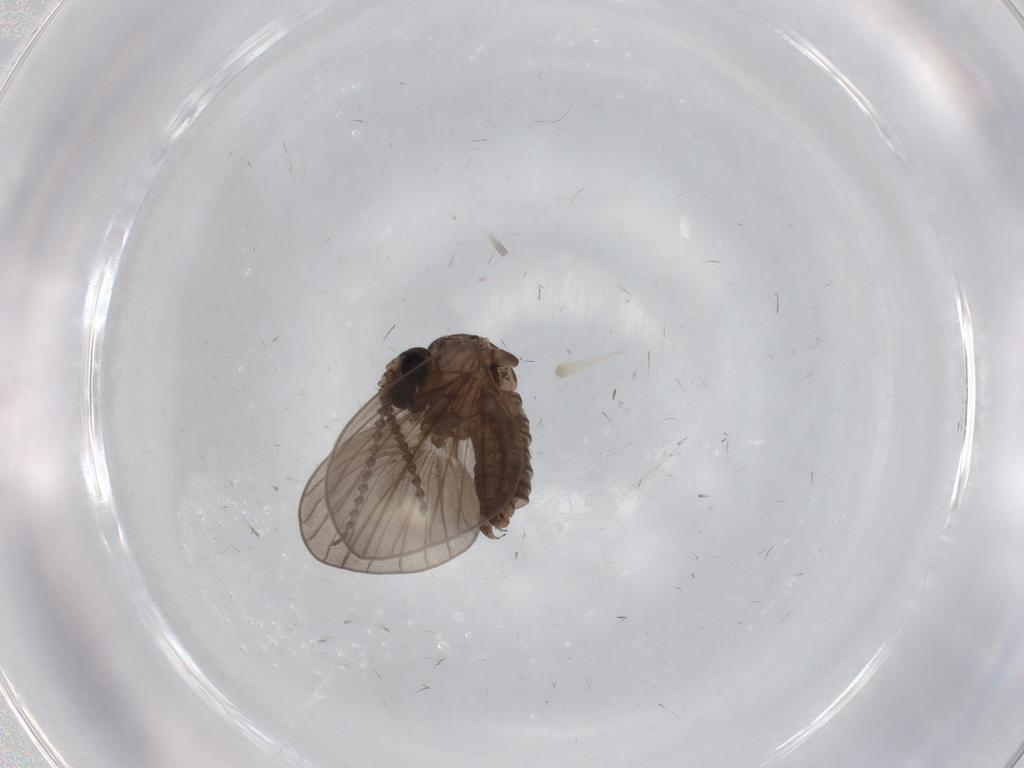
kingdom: Animalia
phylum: Arthropoda
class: Insecta
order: Diptera
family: Psychodidae
